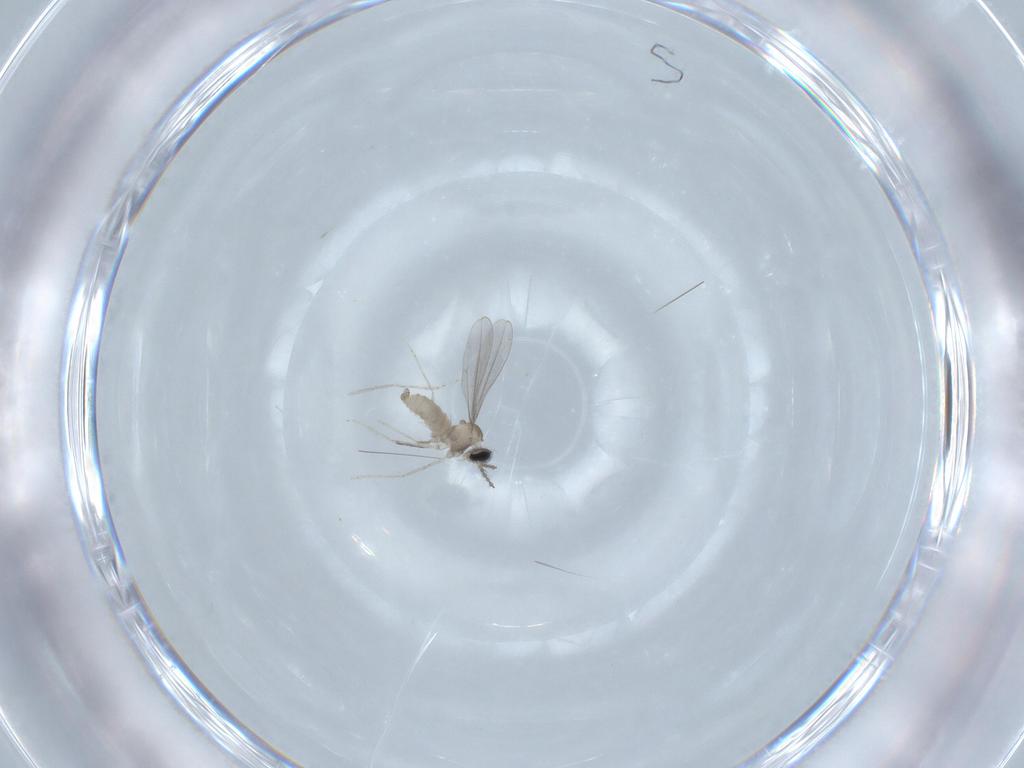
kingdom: Animalia
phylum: Arthropoda
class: Insecta
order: Diptera
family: Cecidomyiidae
